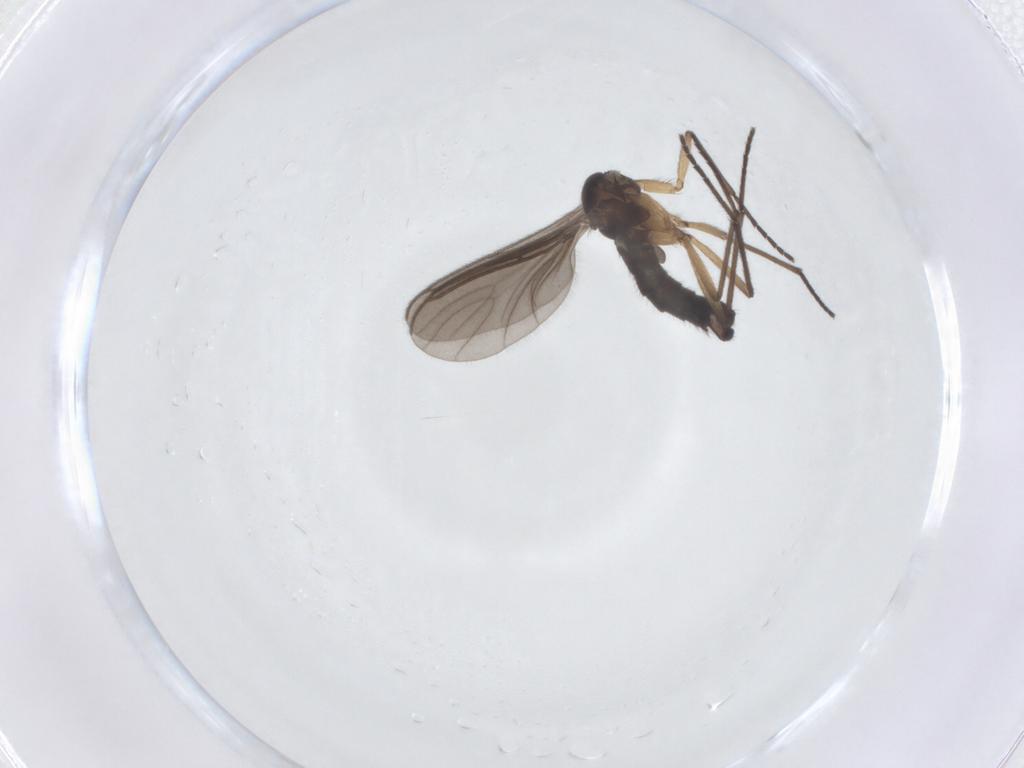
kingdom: Animalia
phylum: Arthropoda
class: Insecta
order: Diptera
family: Sciaridae
